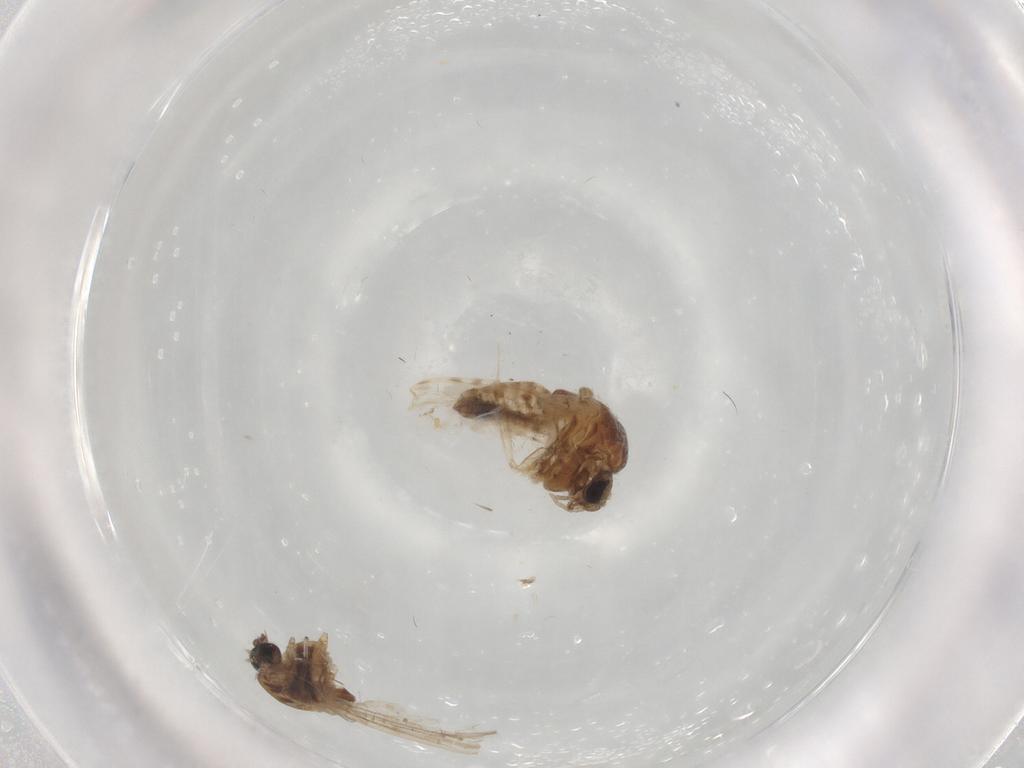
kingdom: Animalia
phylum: Arthropoda
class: Insecta
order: Diptera
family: Chironomidae
